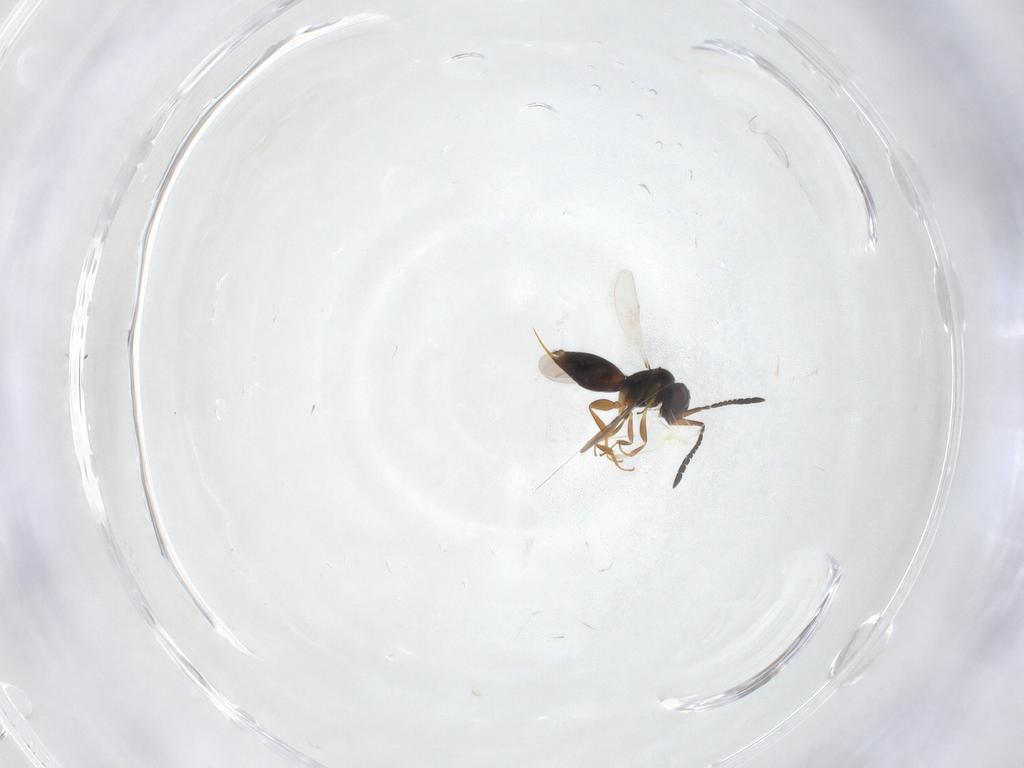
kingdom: Animalia
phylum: Arthropoda
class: Insecta
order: Hymenoptera
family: Ceraphronidae
